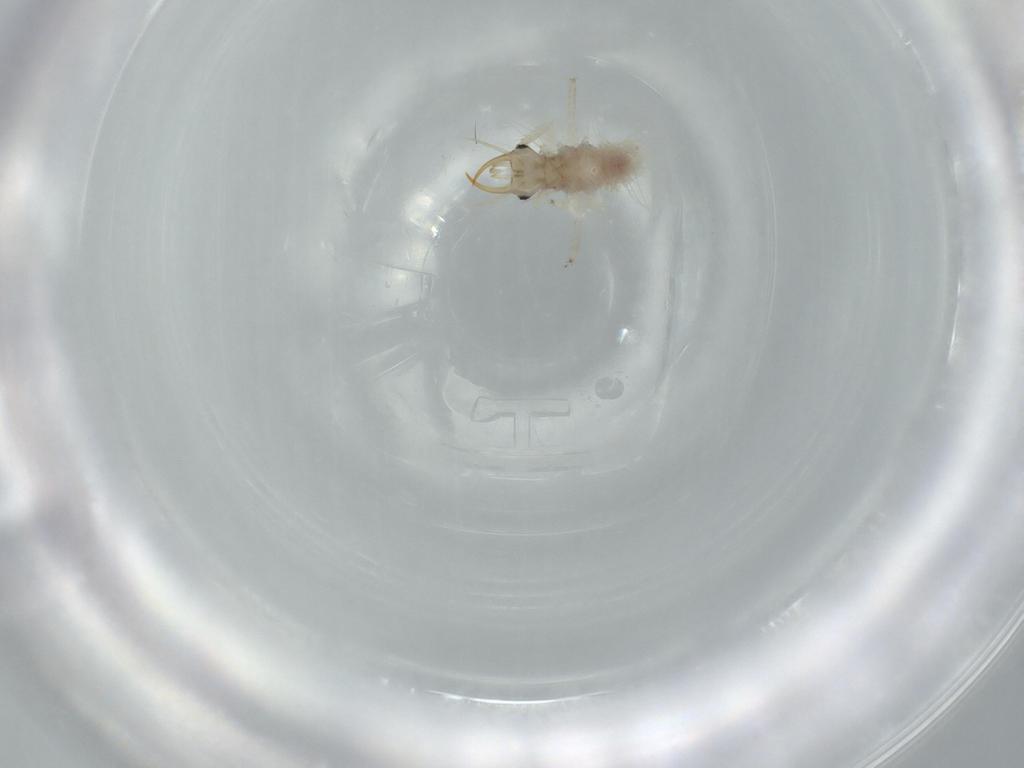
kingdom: Animalia
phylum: Arthropoda
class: Insecta
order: Neuroptera
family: Chrysopidae
